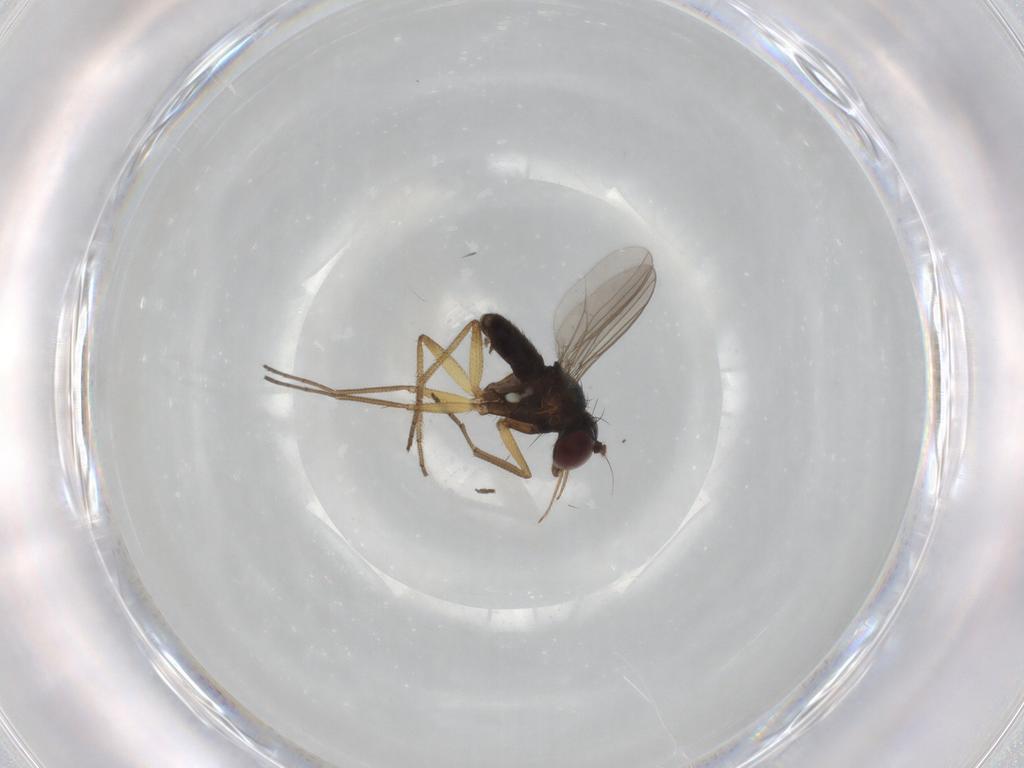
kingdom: Animalia
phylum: Arthropoda
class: Insecta
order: Diptera
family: Dolichopodidae
